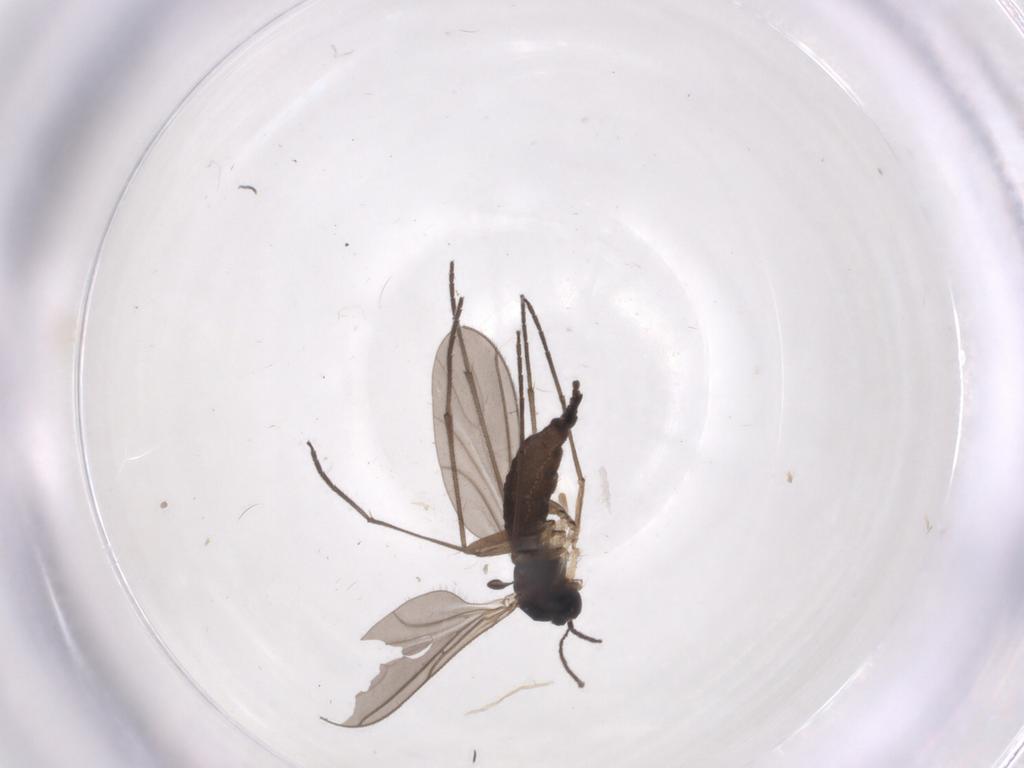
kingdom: Animalia
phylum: Arthropoda
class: Insecta
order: Diptera
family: Sciaridae
